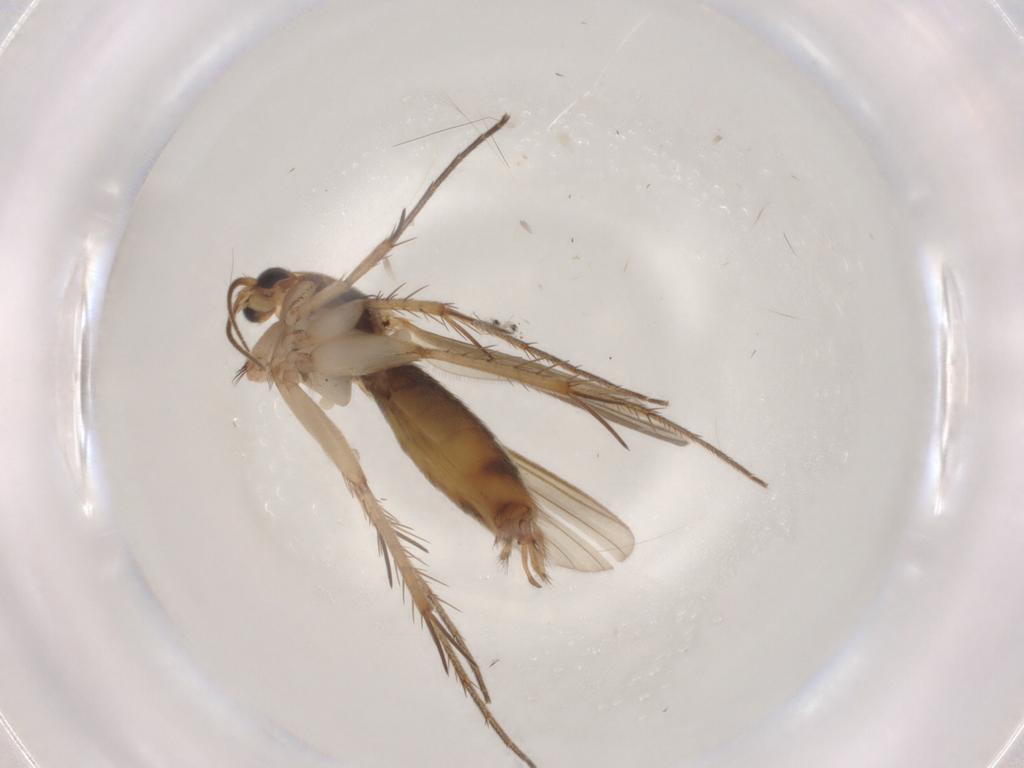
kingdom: Animalia
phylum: Arthropoda
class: Insecta
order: Diptera
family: Mycetophilidae
